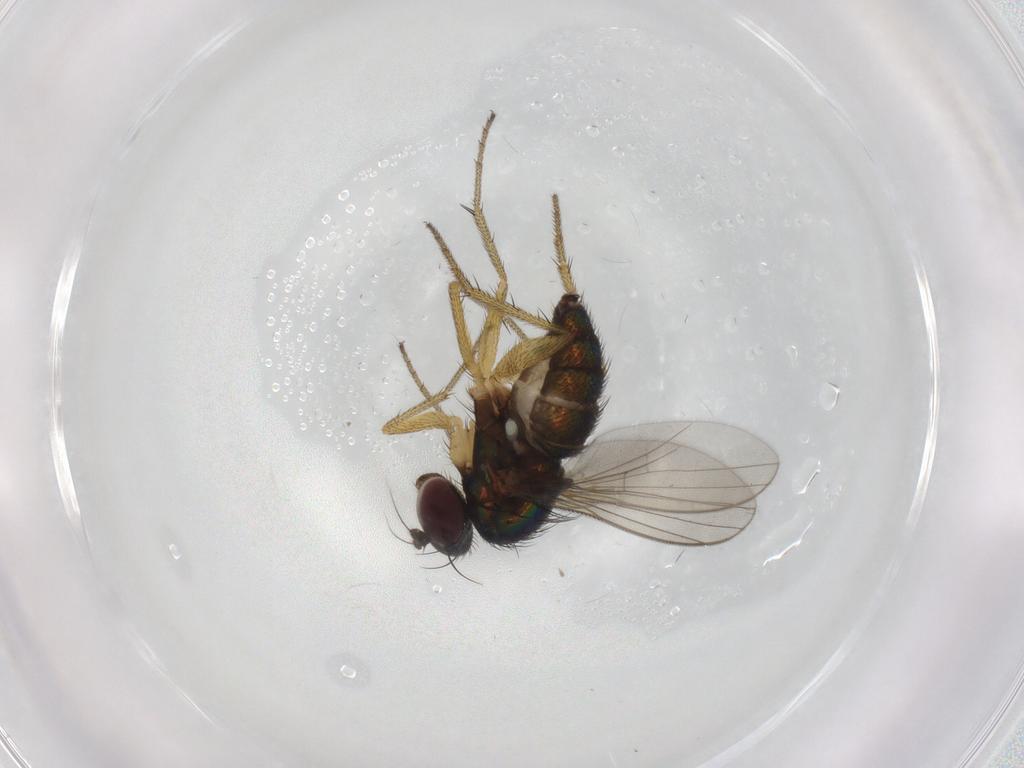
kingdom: Animalia
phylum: Arthropoda
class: Insecta
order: Diptera
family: Dolichopodidae
